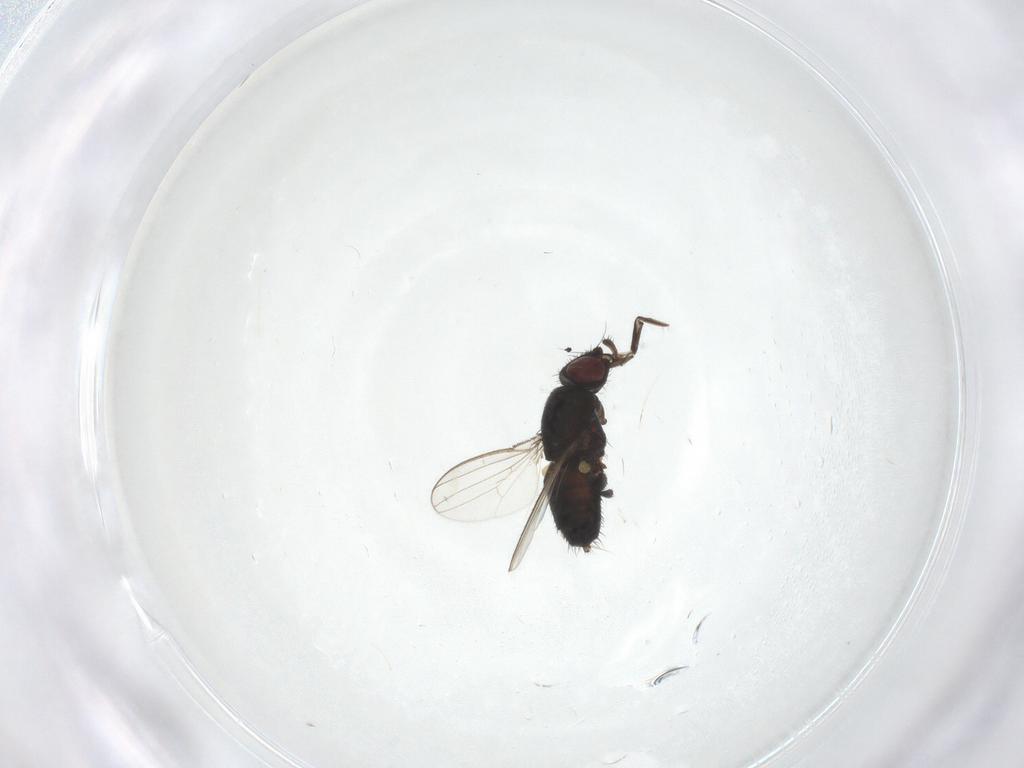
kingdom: Animalia
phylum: Arthropoda
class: Insecta
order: Diptera
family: Milichiidae
